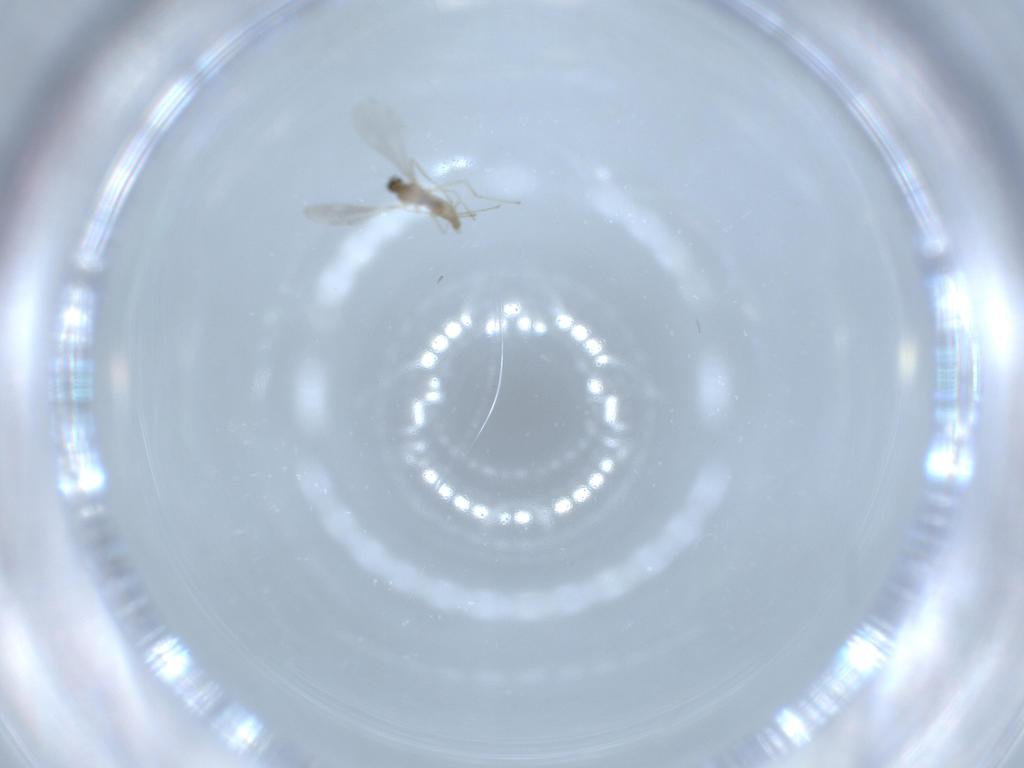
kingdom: Animalia
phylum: Arthropoda
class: Insecta
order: Diptera
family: Cecidomyiidae
